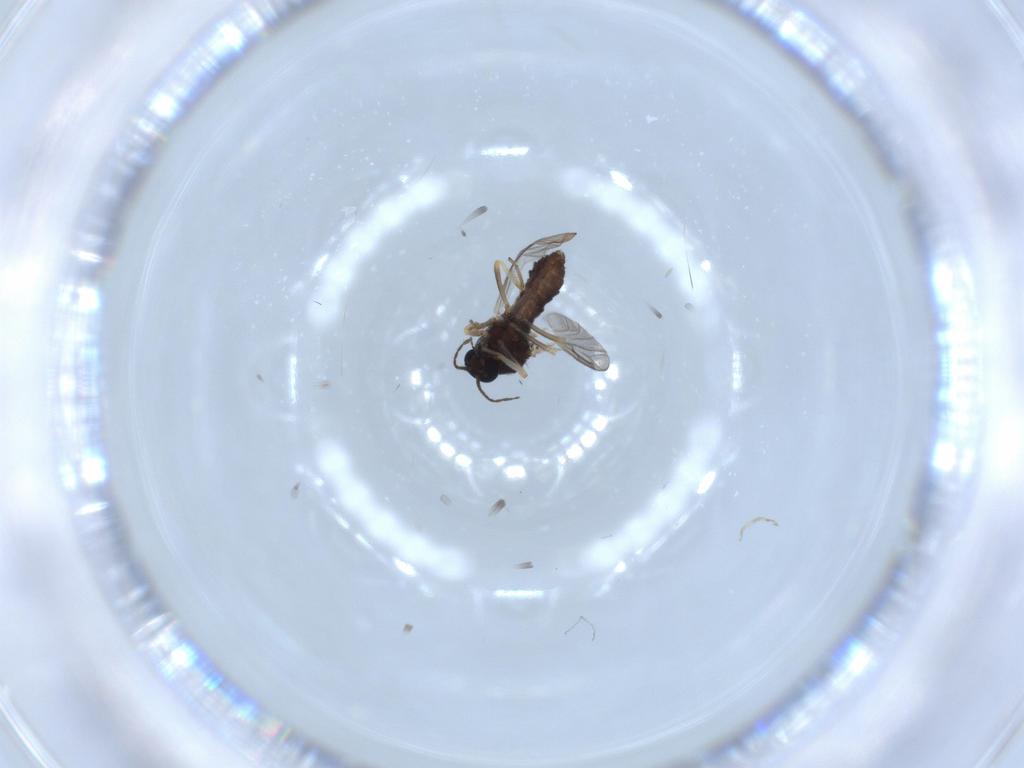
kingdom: Animalia
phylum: Arthropoda
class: Insecta
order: Diptera
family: Ceratopogonidae
